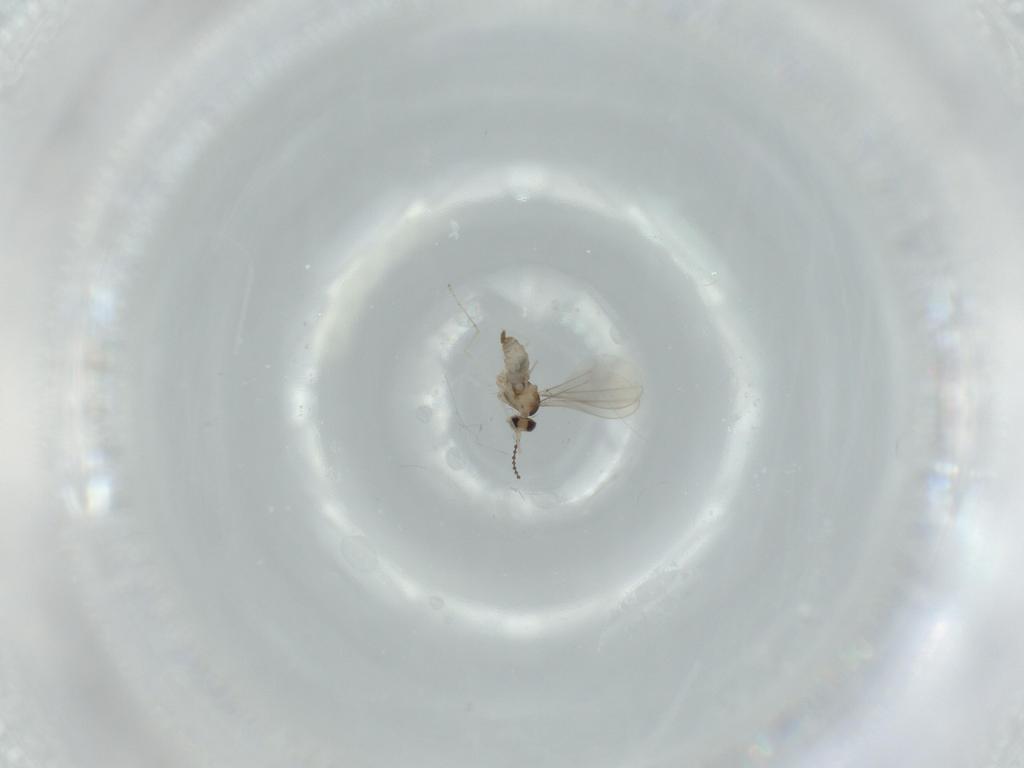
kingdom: Animalia
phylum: Arthropoda
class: Insecta
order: Diptera
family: Cecidomyiidae
